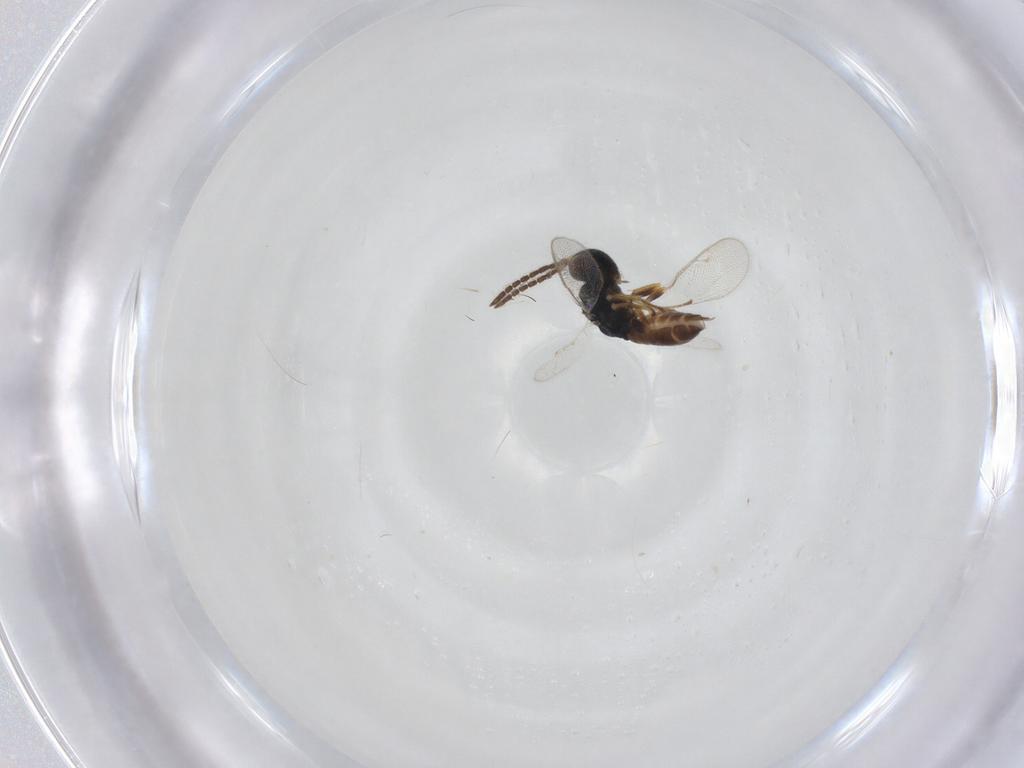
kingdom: Animalia
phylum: Arthropoda
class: Insecta
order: Hymenoptera
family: Pteromalidae
